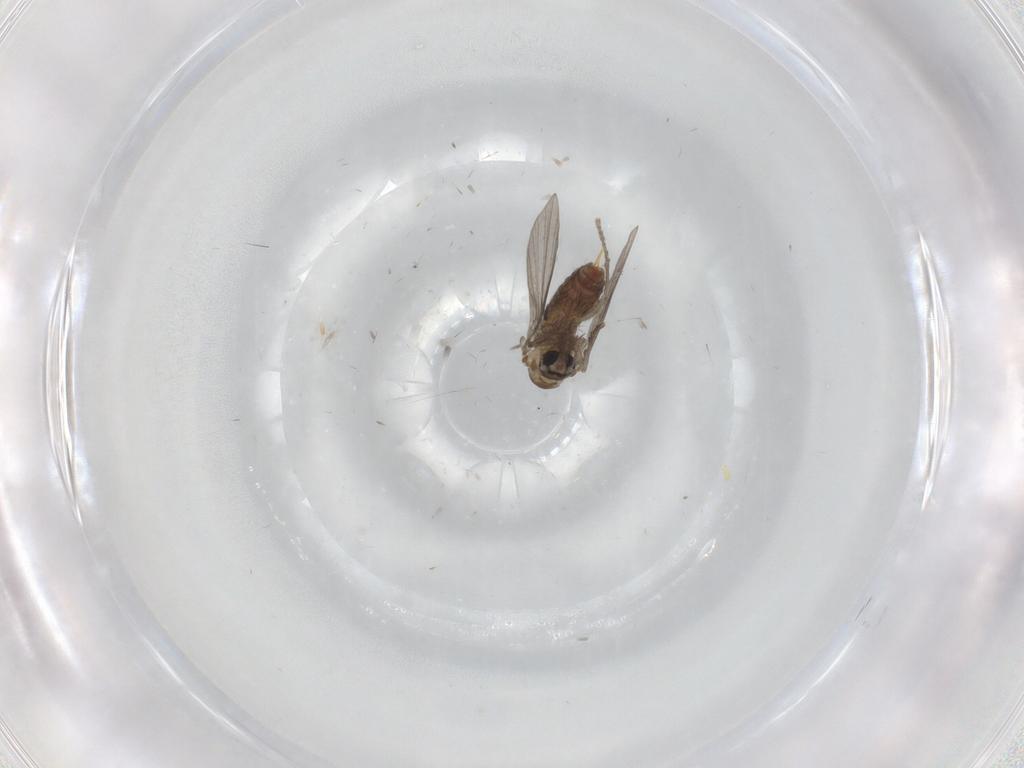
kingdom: Animalia
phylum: Arthropoda
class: Insecta
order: Diptera
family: Psychodidae
